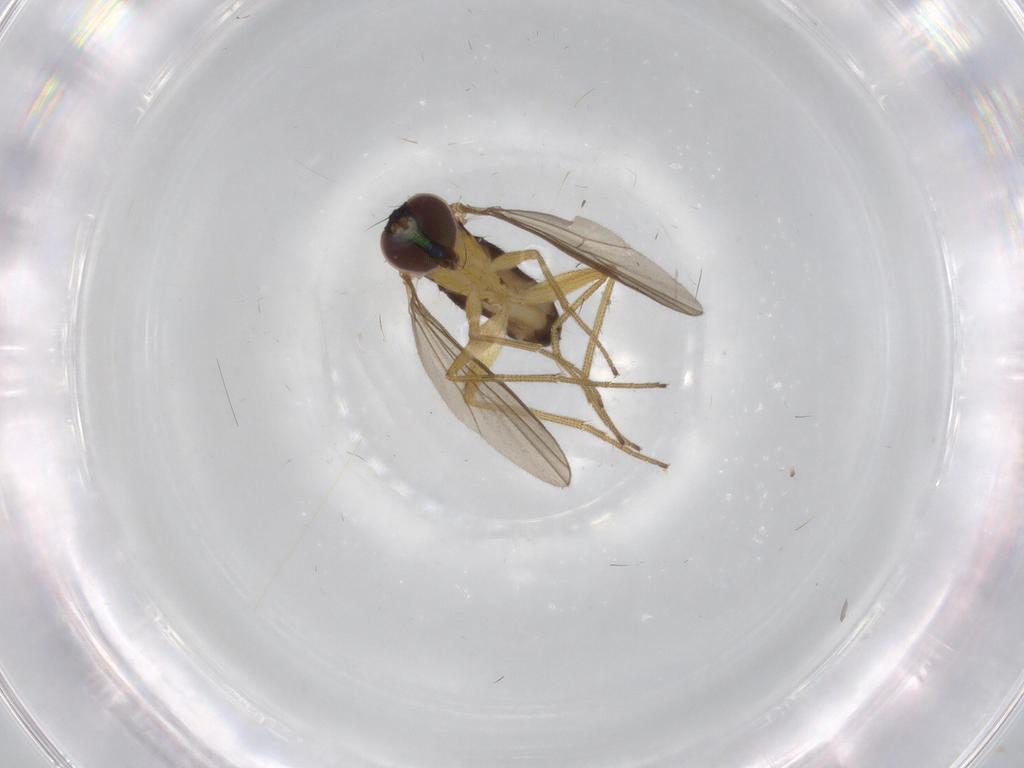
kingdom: Animalia
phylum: Arthropoda
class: Insecta
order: Diptera
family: Dolichopodidae
